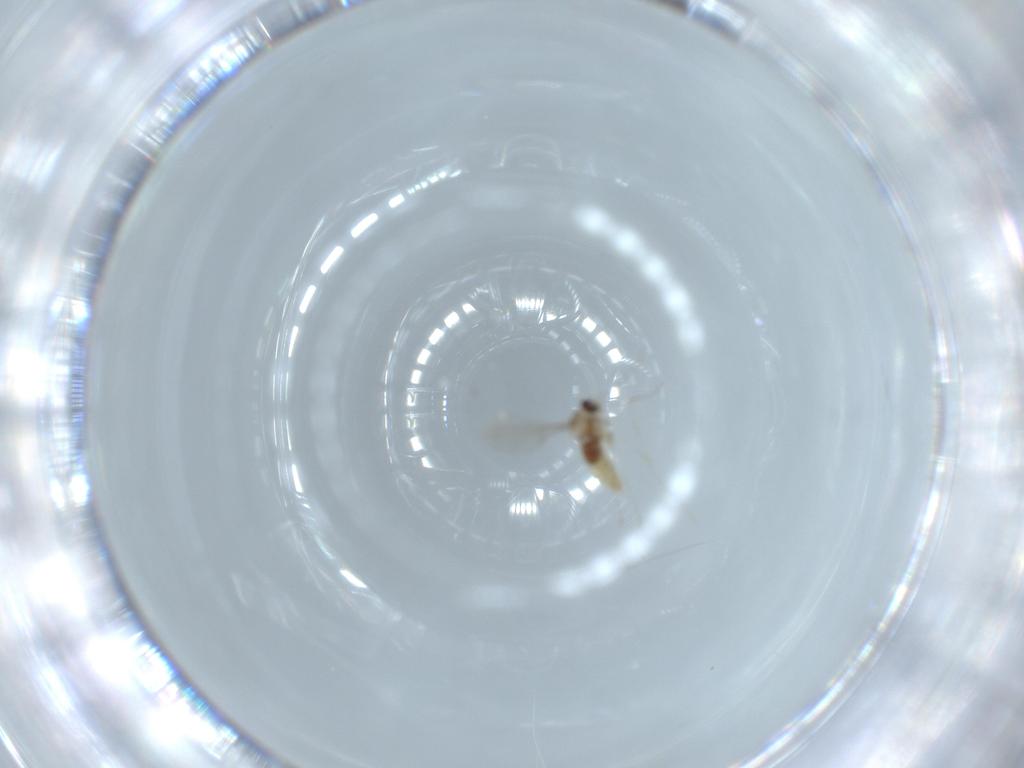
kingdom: Animalia
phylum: Arthropoda
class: Insecta
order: Diptera
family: Cecidomyiidae
